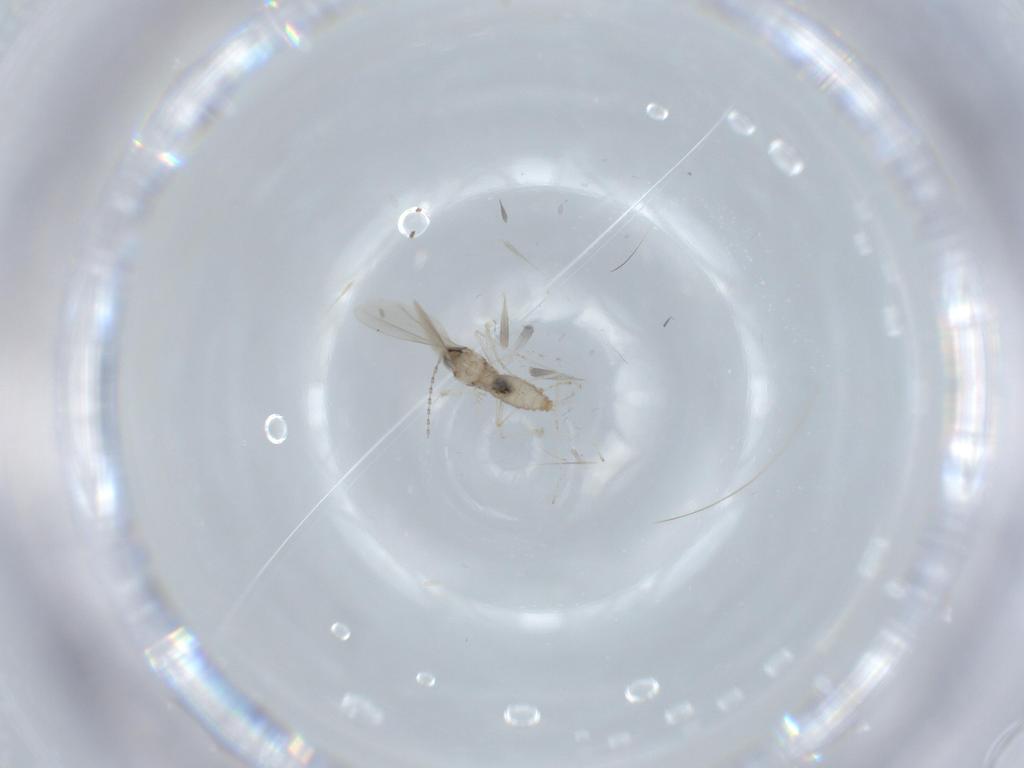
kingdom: Animalia
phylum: Arthropoda
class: Insecta
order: Diptera
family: Cecidomyiidae
